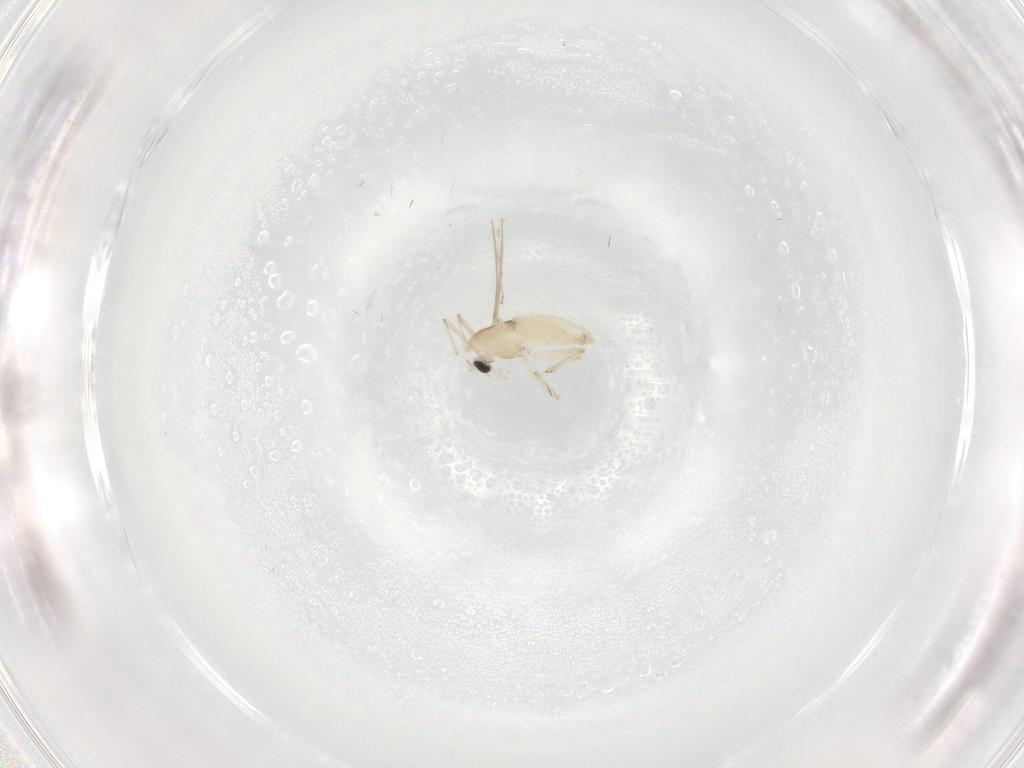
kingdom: Animalia
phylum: Arthropoda
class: Insecta
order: Diptera
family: Chironomidae
